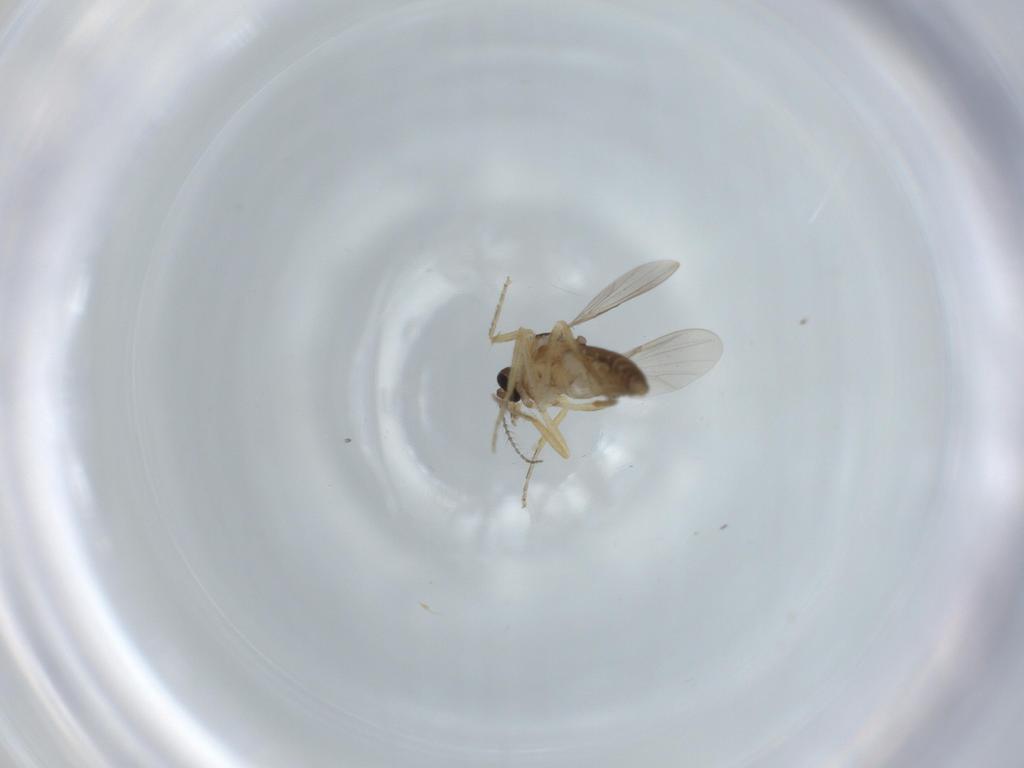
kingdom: Animalia
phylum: Arthropoda
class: Insecta
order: Diptera
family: Ceratopogonidae
